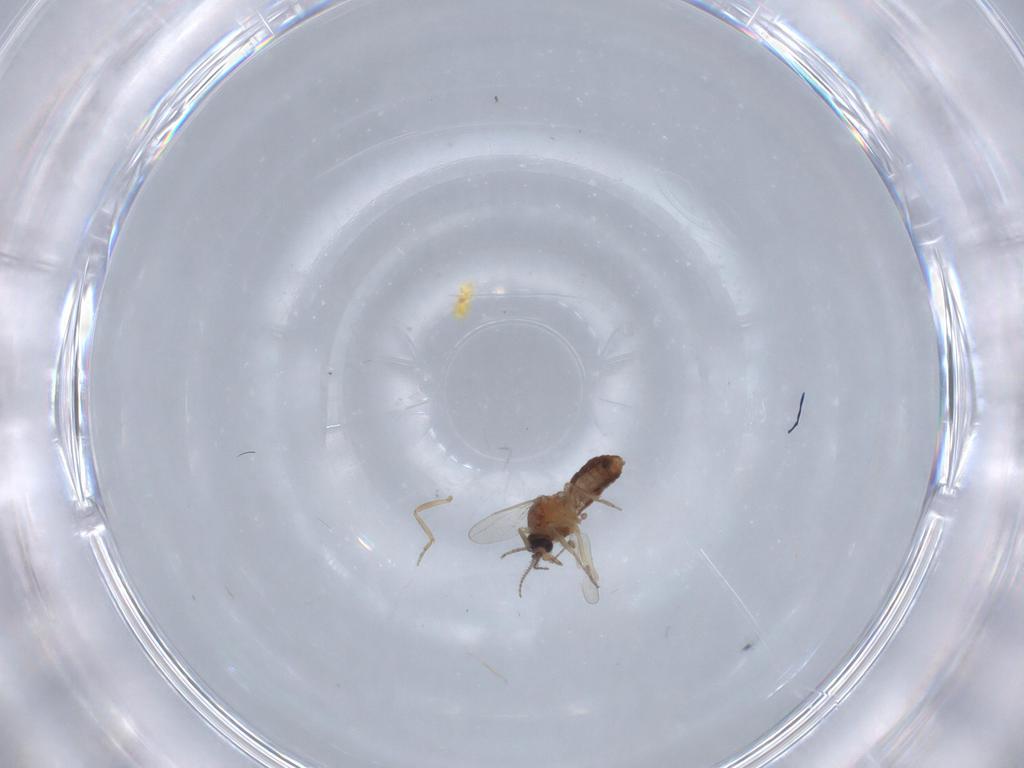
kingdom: Animalia
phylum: Arthropoda
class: Insecta
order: Diptera
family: Ceratopogonidae
